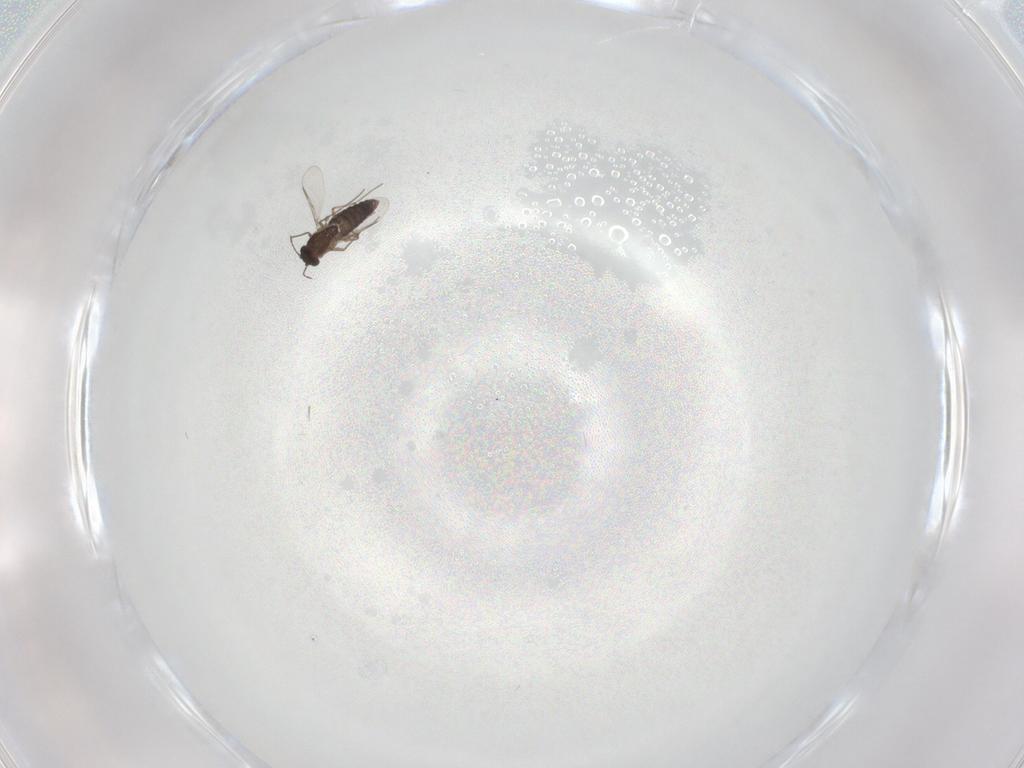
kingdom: Animalia
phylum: Arthropoda
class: Insecta
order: Diptera
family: Chironomidae
